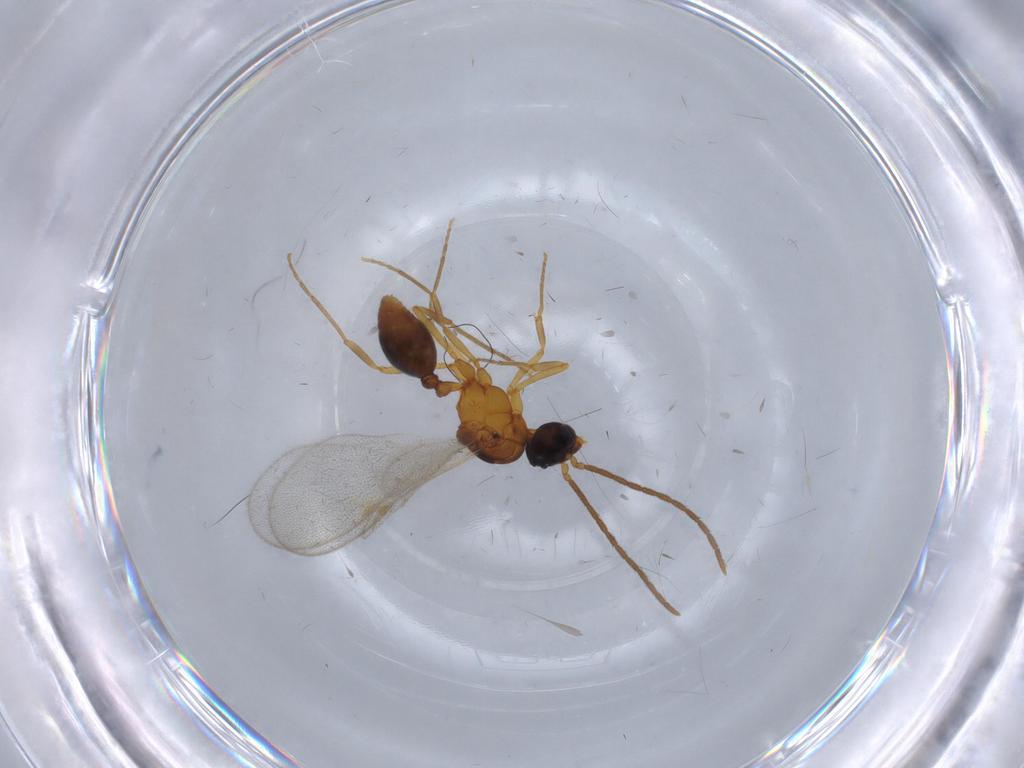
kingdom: Animalia
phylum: Arthropoda
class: Insecta
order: Hymenoptera
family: Formicidae
